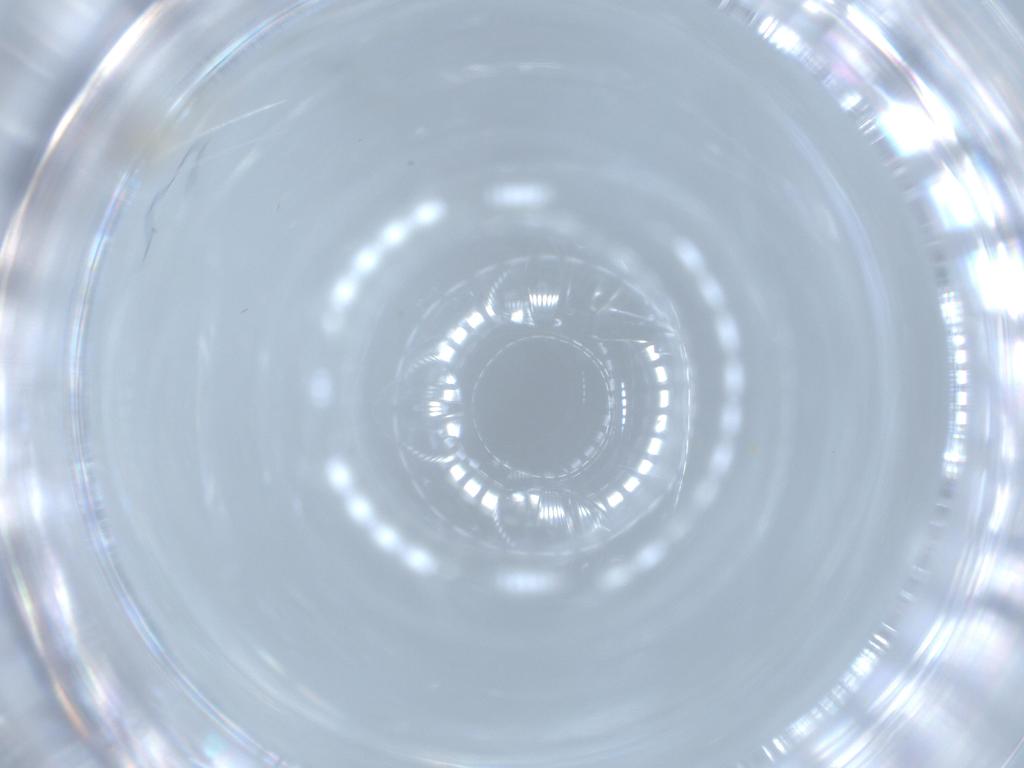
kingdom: Animalia
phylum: Arthropoda
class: Insecta
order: Diptera
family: Cecidomyiidae
